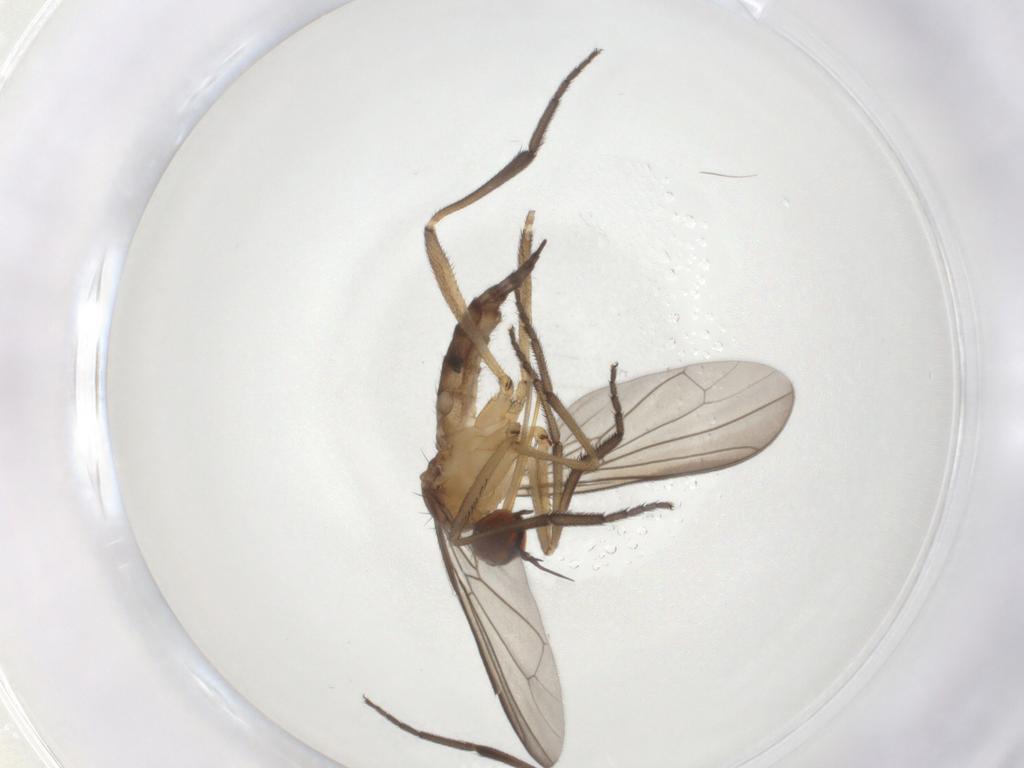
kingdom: Animalia
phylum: Arthropoda
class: Insecta
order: Diptera
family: Empididae
